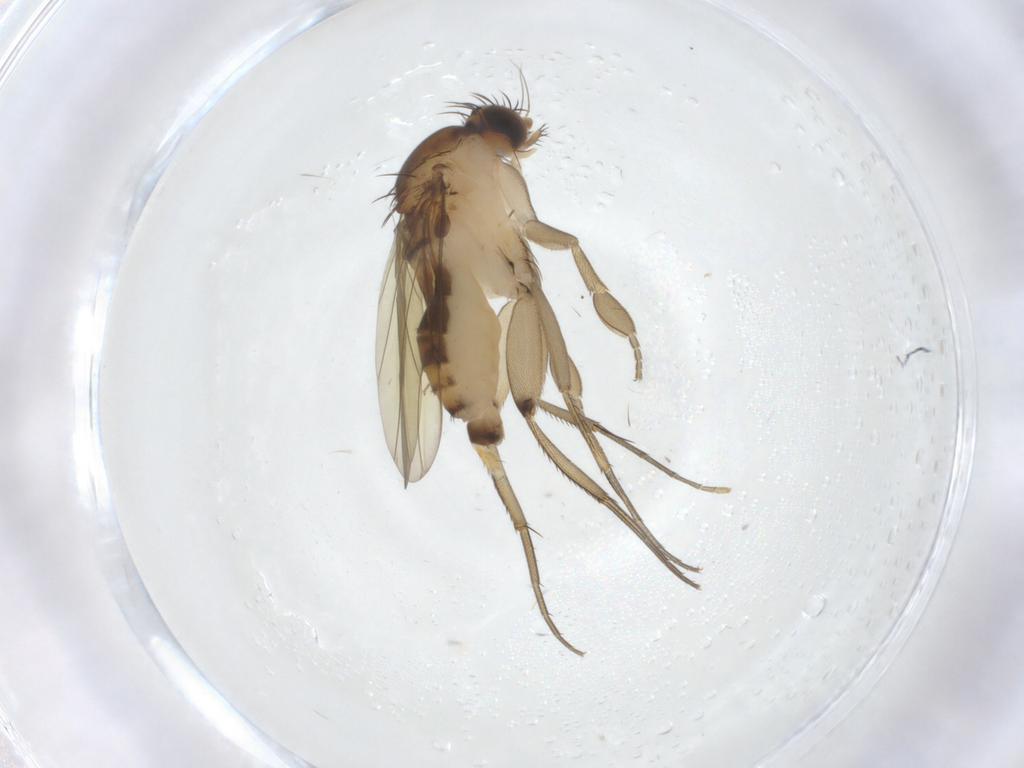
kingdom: Animalia
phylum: Arthropoda
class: Insecta
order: Diptera
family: Phoridae
